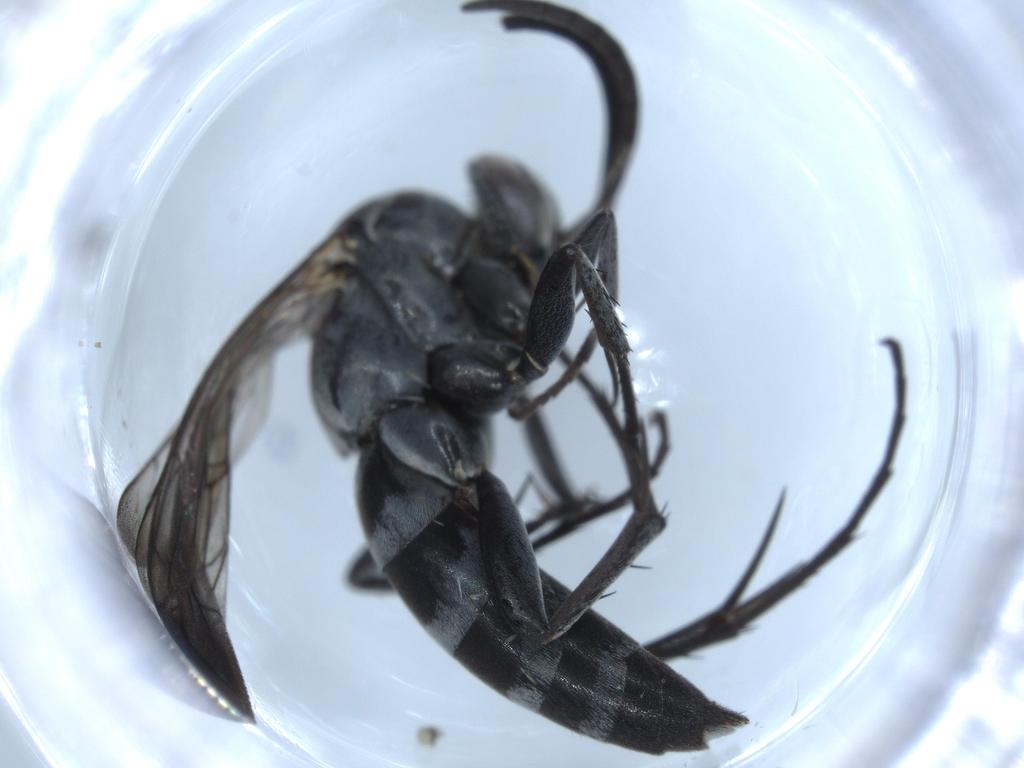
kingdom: Animalia
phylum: Arthropoda
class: Insecta
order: Hymenoptera
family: Pompilidae
